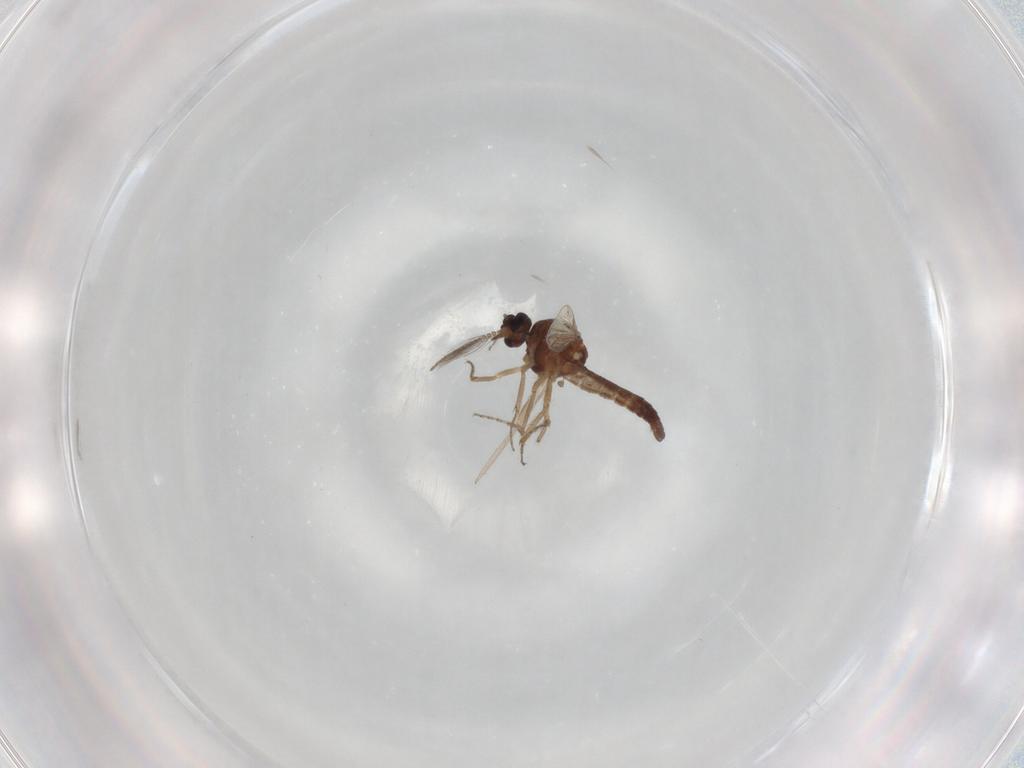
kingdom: Animalia
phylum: Arthropoda
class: Insecta
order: Diptera
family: Ceratopogonidae
